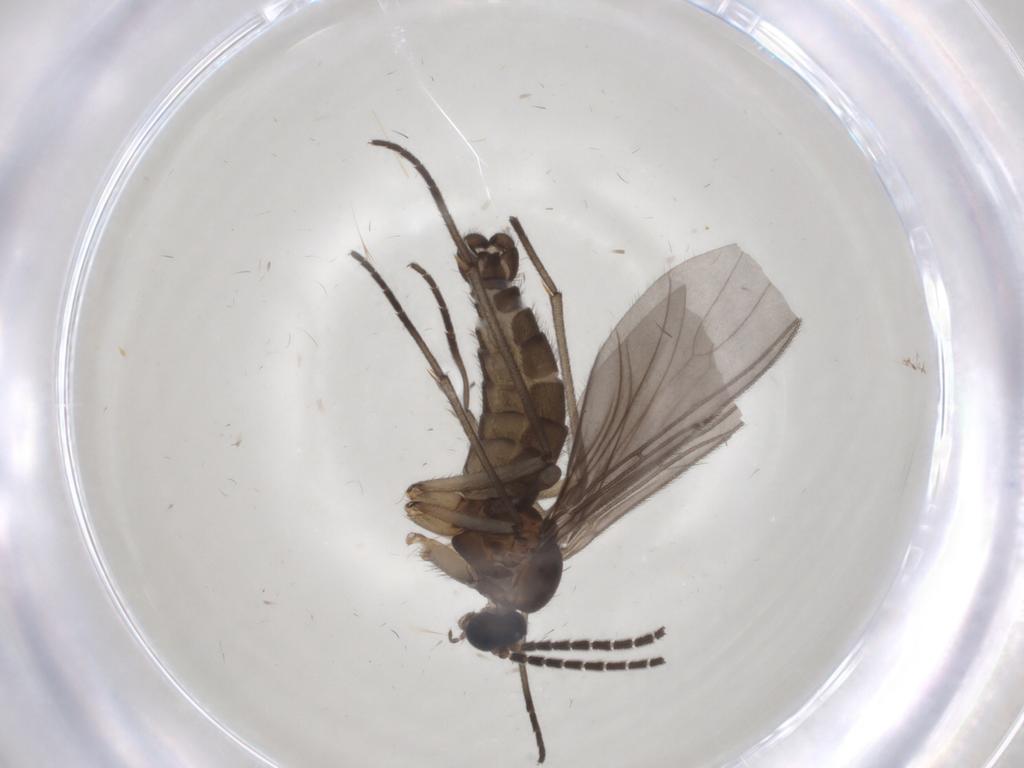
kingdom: Animalia
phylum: Arthropoda
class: Insecta
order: Diptera
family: Sciaridae
